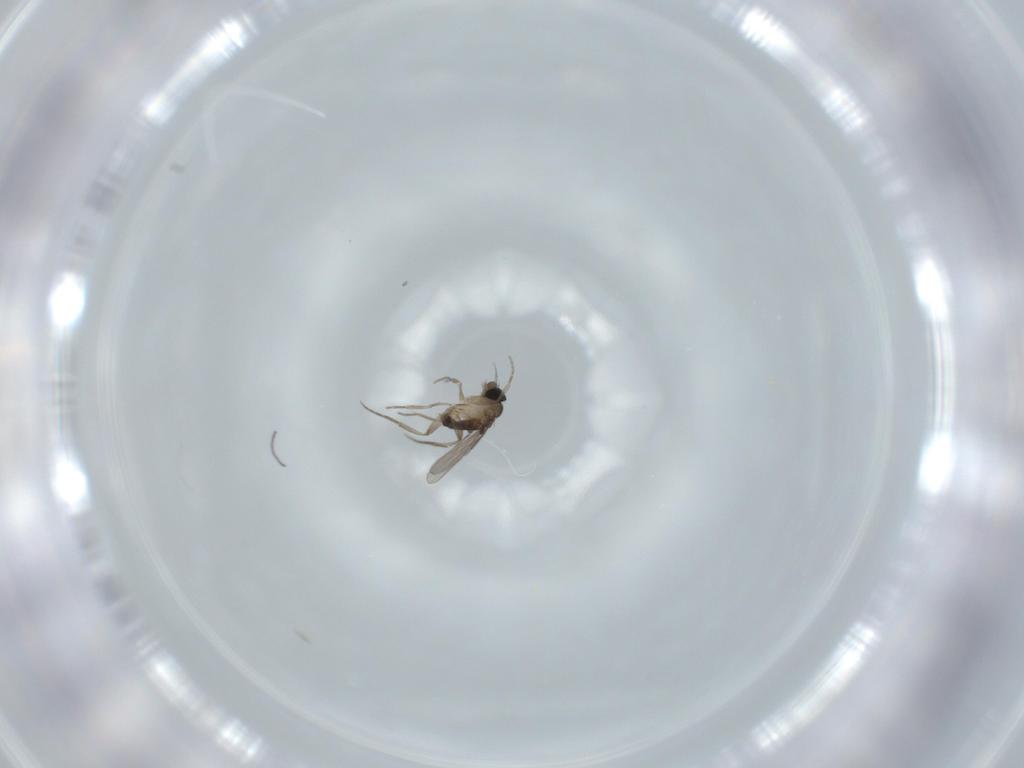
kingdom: Animalia
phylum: Arthropoda
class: Insecta
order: Diptera
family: Phoridae
